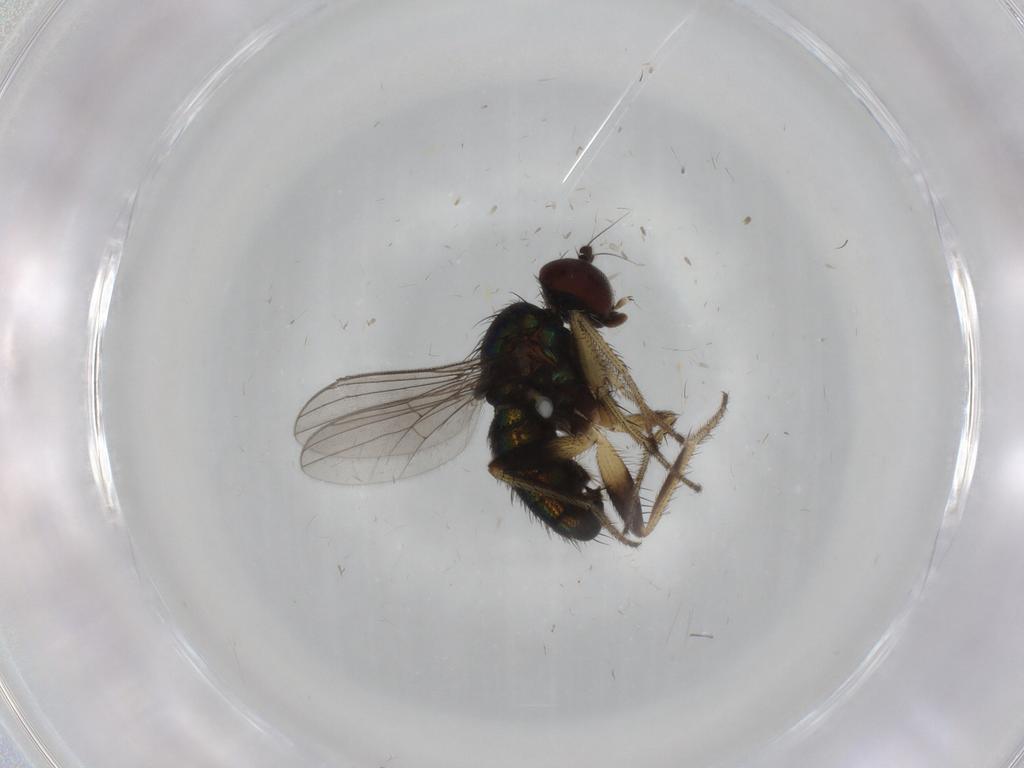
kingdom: Animalia
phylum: Arthropoda
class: Insecta
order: Diptera
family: Dolichopodidae
